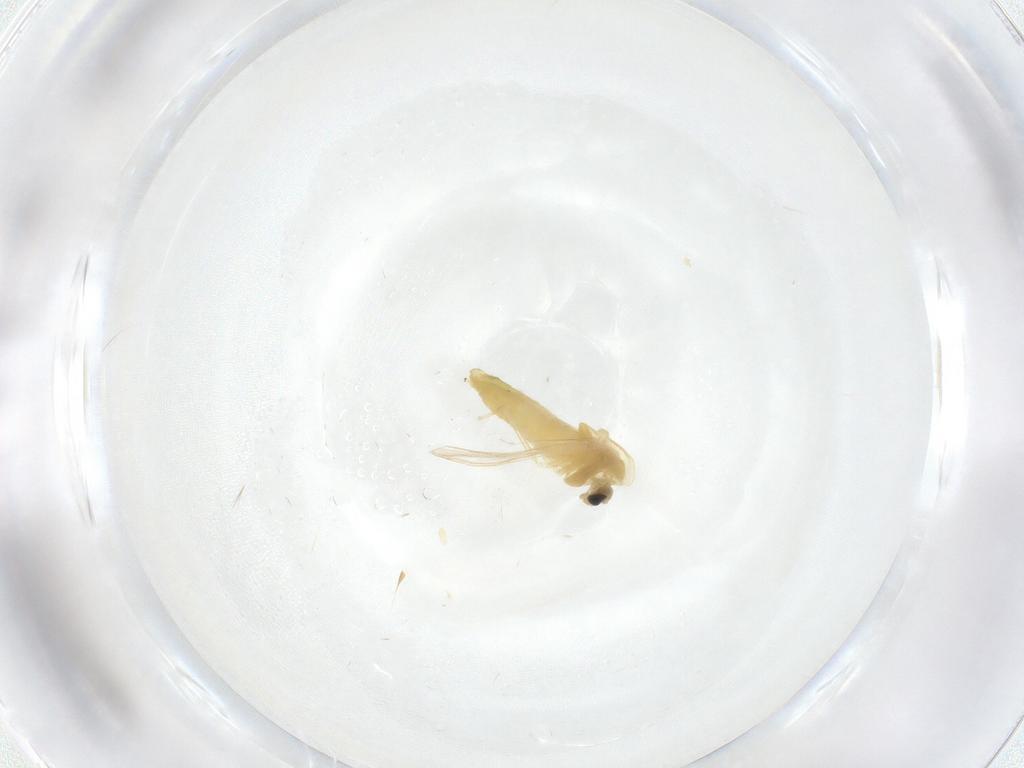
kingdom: Animalia
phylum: Arthropoda
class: Insecta
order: Diptera
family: Chironomidae
